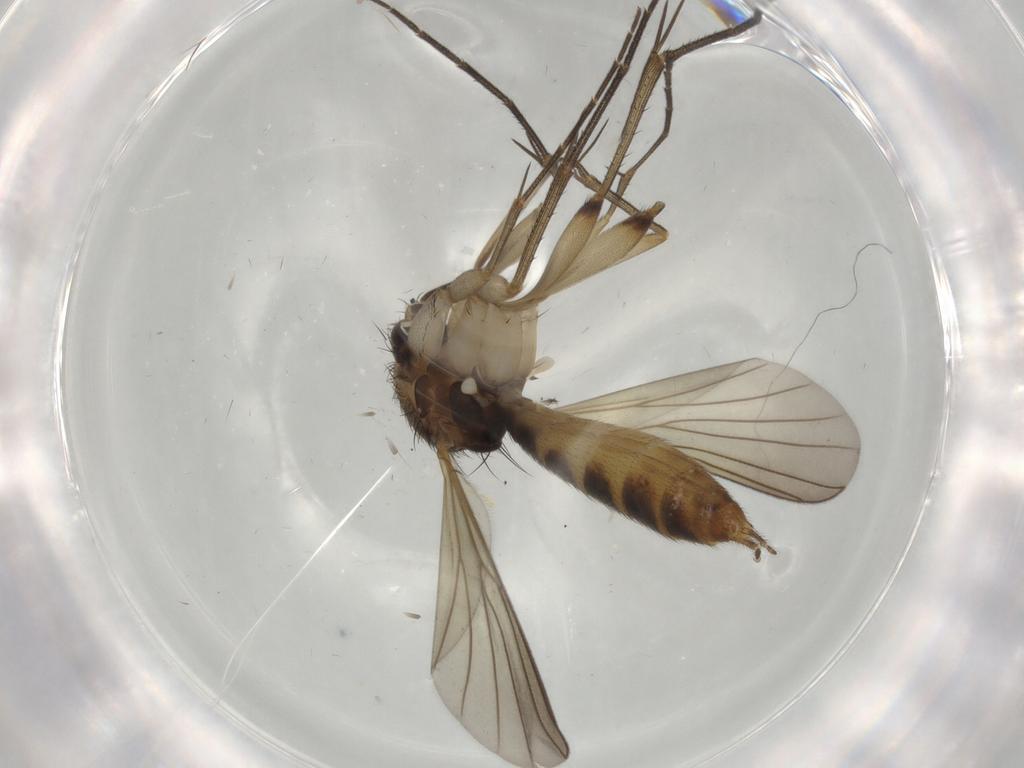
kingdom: Animalia
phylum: Arthropoda
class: Insecta
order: Diptera
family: Mycetophilidae
